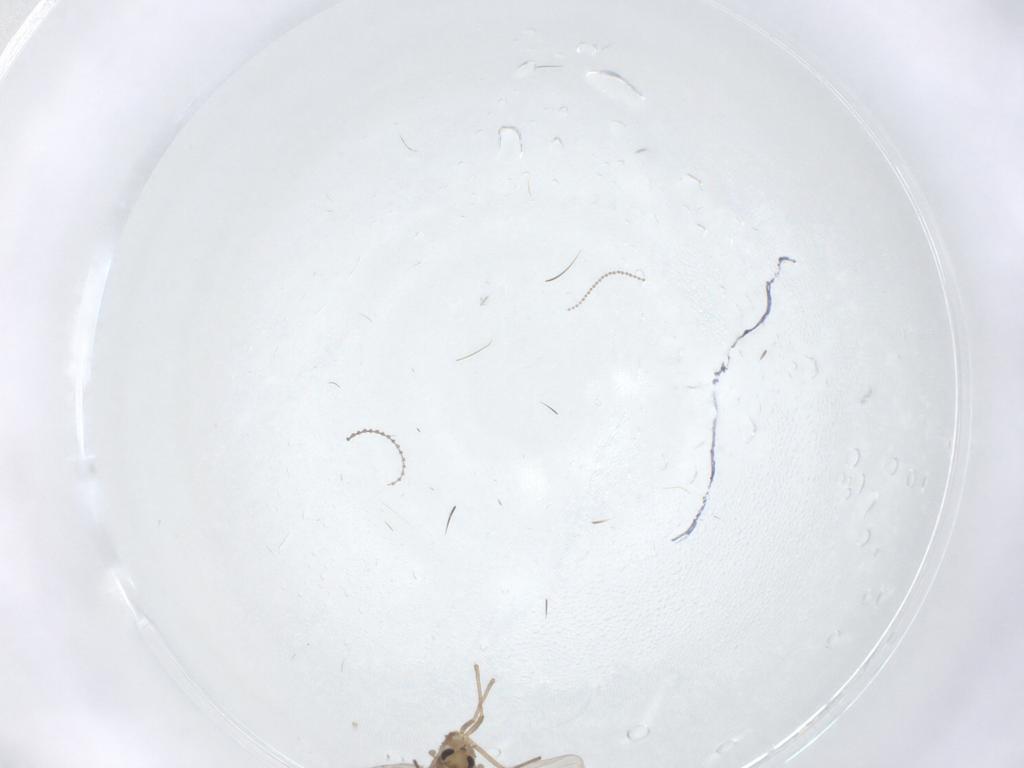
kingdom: Animalia
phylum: Arthropoda
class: Insecta
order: Diptera
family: Chironomidae
